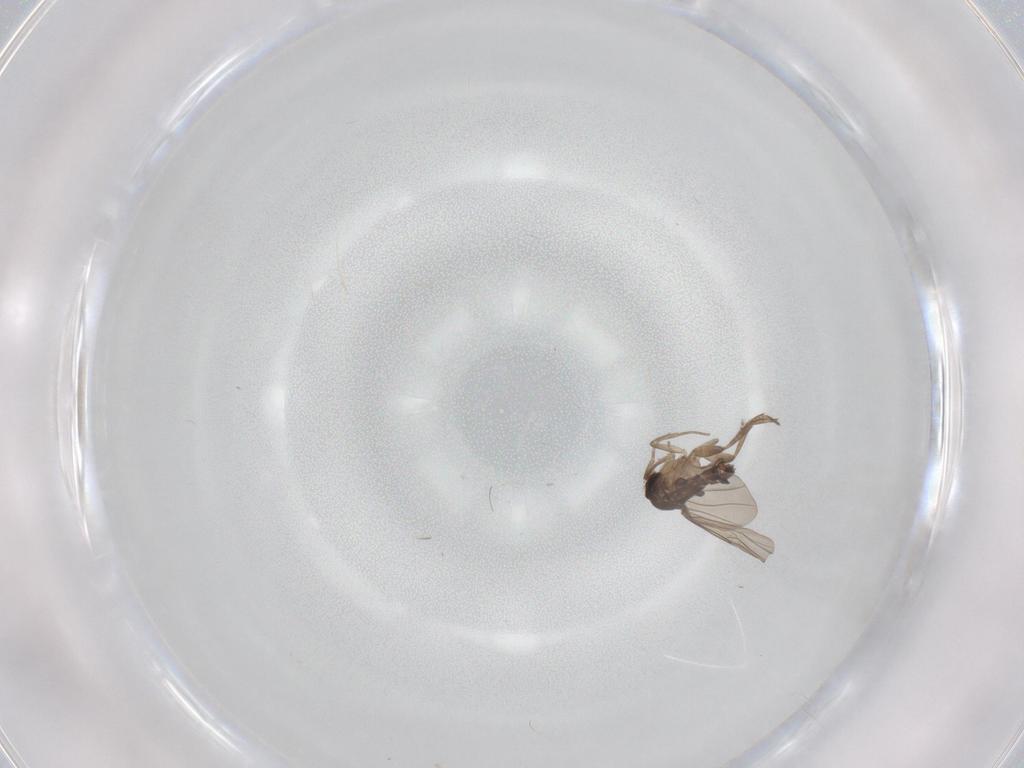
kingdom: Animalia
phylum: Arthropoda
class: Insecta
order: Diptera
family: Phoridae
